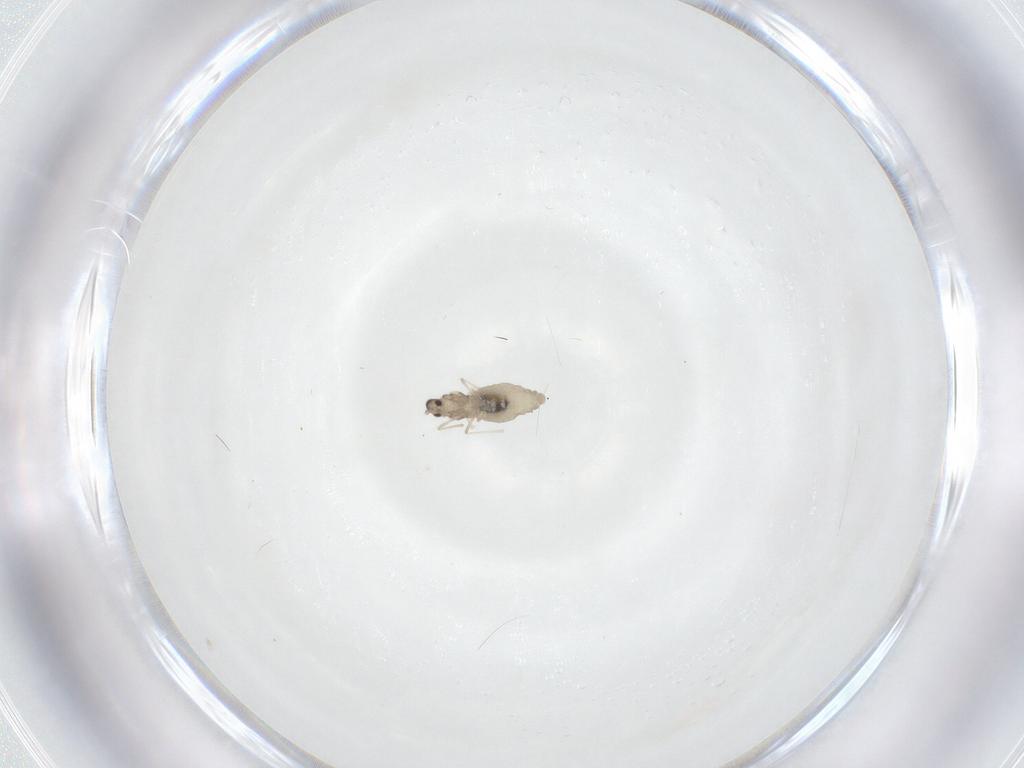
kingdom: Animalia
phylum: Arthropoda
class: Insecta
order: Diptera
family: Cecidomyiidae
